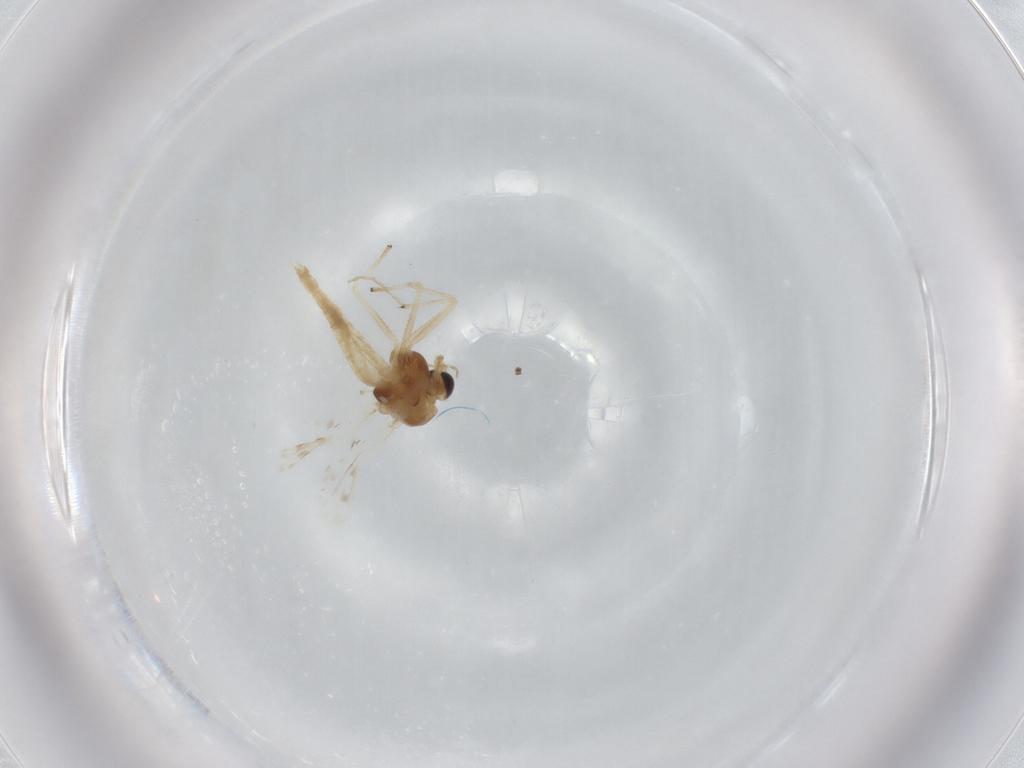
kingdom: Animalia
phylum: Arthropoda
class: Insecta
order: Diptera
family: Chironomidae
